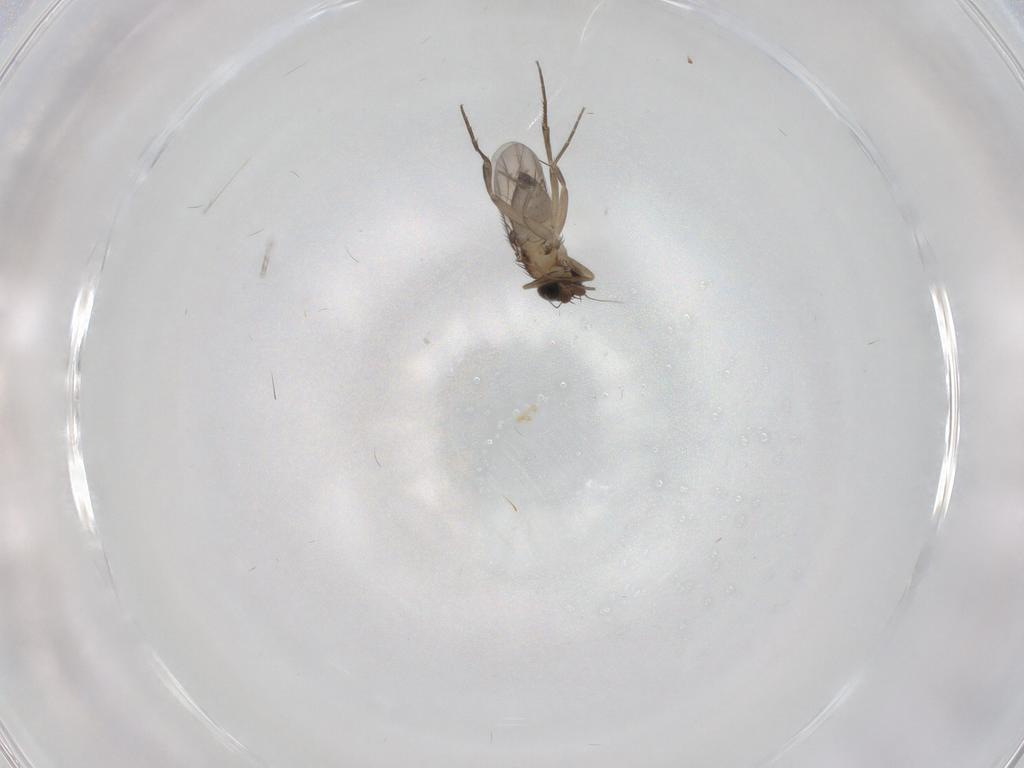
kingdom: Animalia
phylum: Arthropoda
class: Insecta
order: Diptera
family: Phoridae
